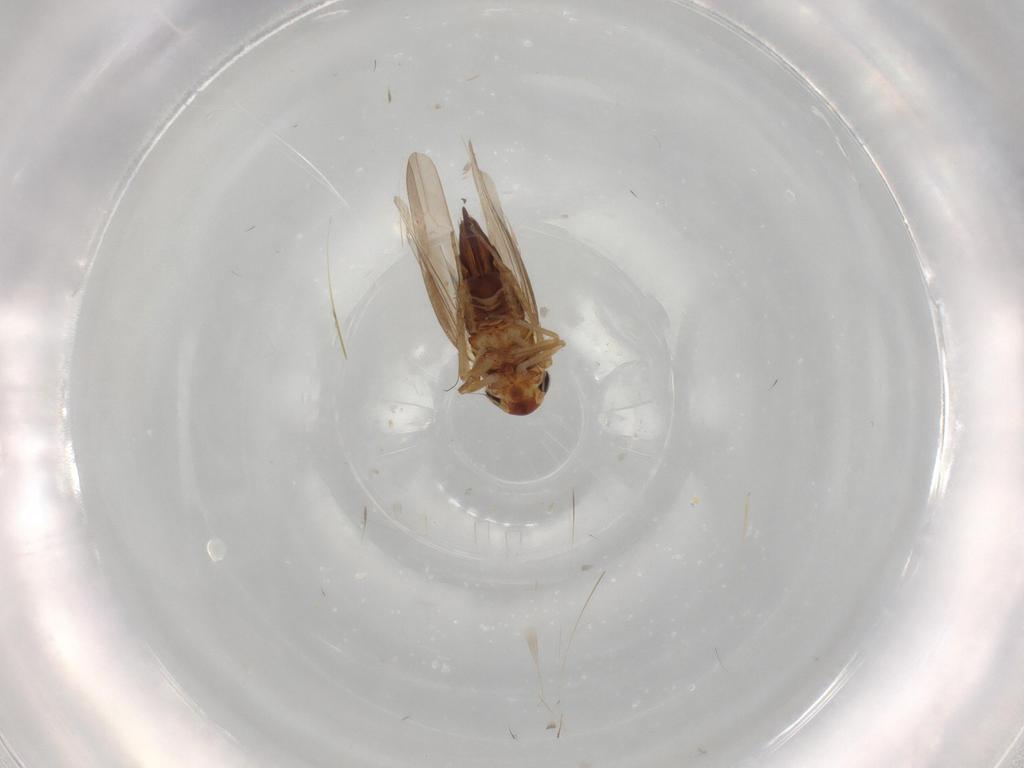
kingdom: Animalia
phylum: Arthropoda
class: Insecta
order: Hemiptera
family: Cicadellidae
